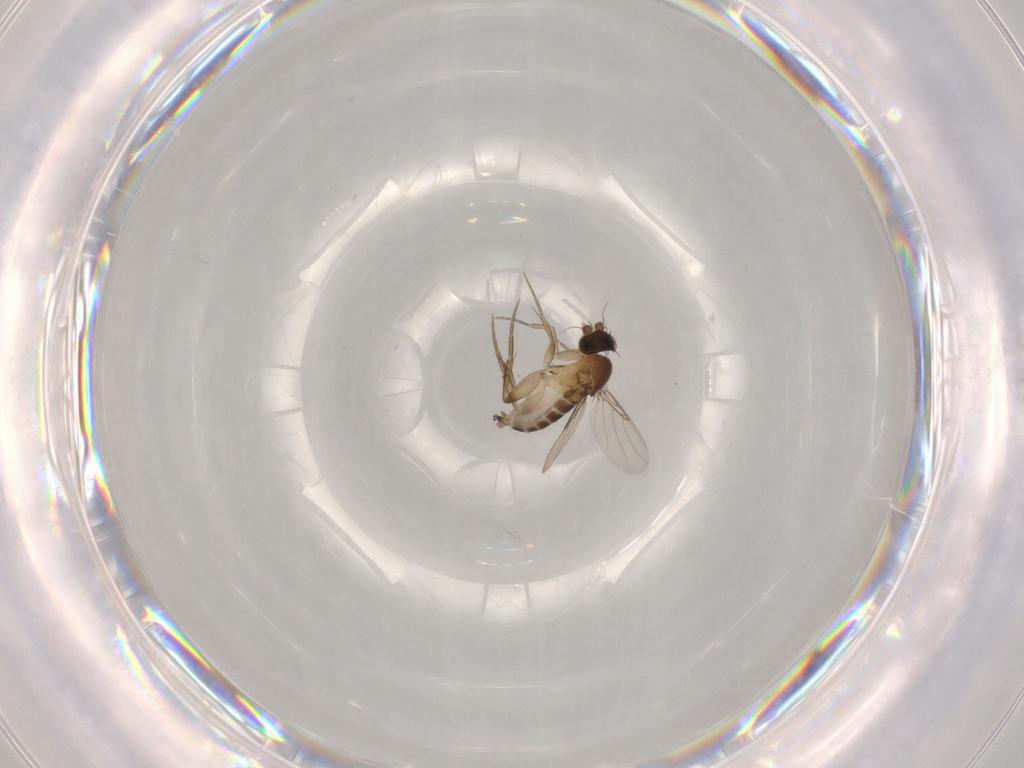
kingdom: Animalia
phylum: Arthropoda
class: Insecta
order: Diptera
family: Phoridae
